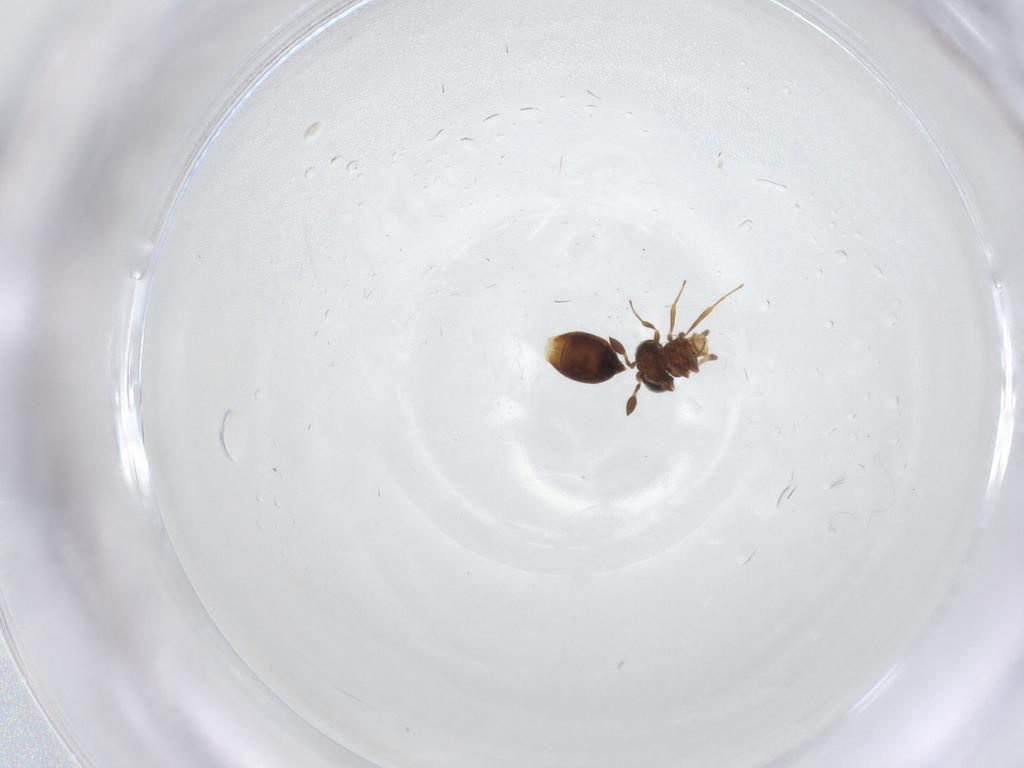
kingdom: Animalia
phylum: Arthropoda
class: Insecta
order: Hymenoptera
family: Scelionidae
